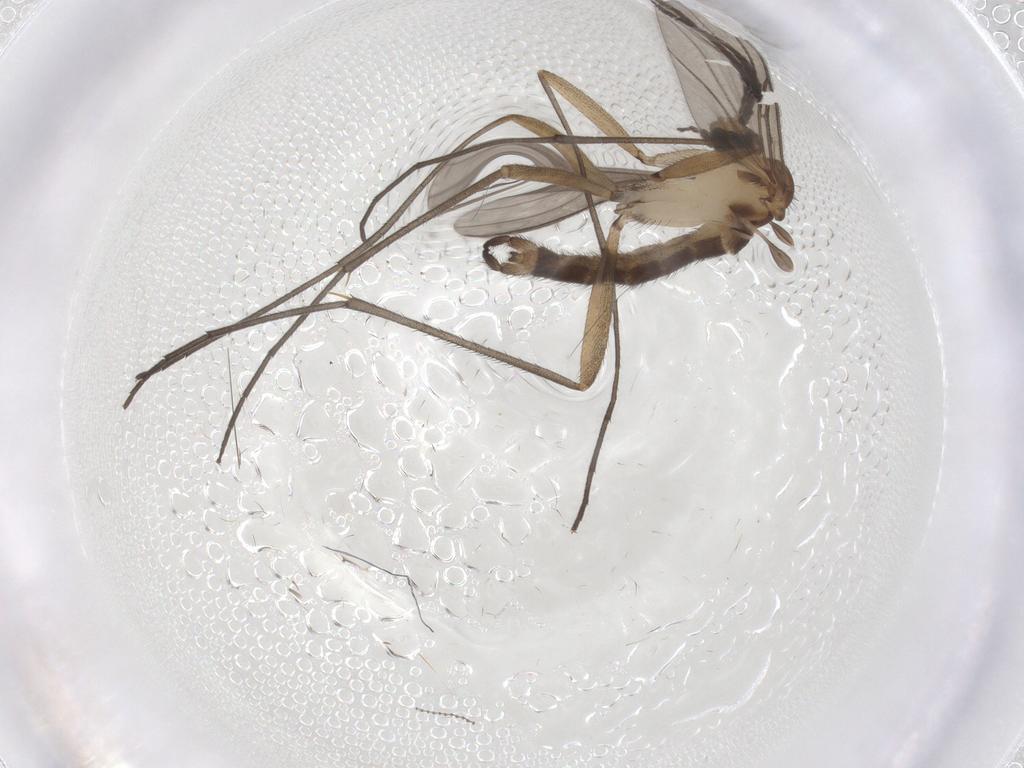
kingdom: Animalia
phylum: Arthropoda
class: Insecta
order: Diptera
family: Sciaridae
